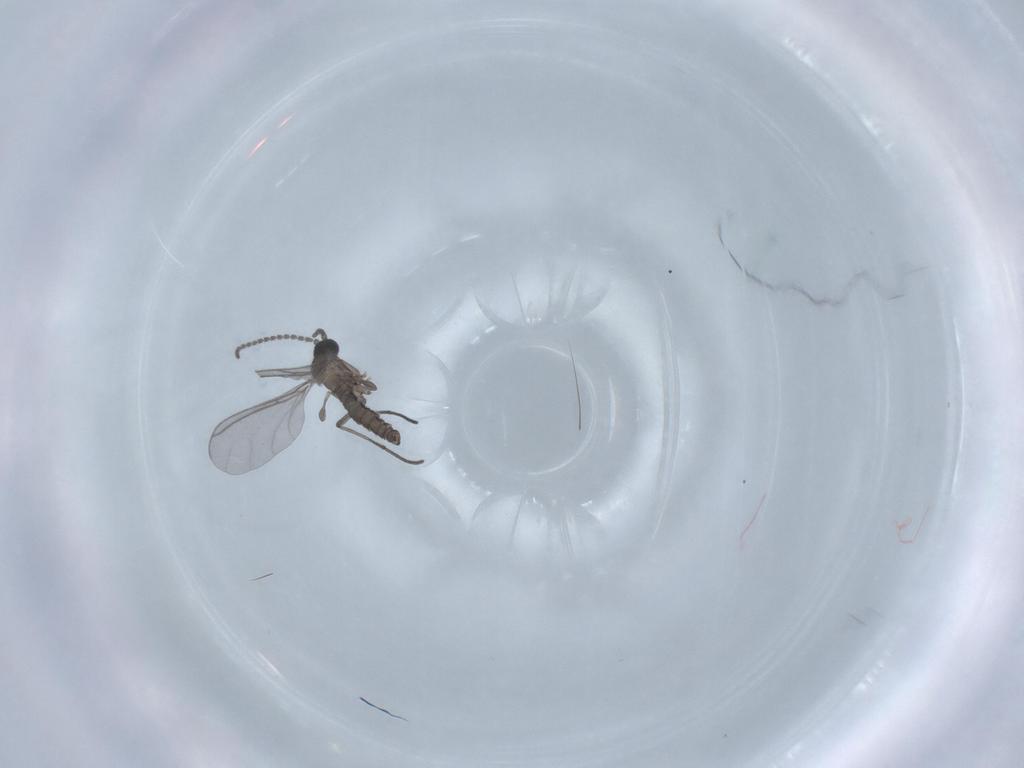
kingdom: Animalia
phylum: Arthropoda
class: Insecta
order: Diptera
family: Sciaridae
